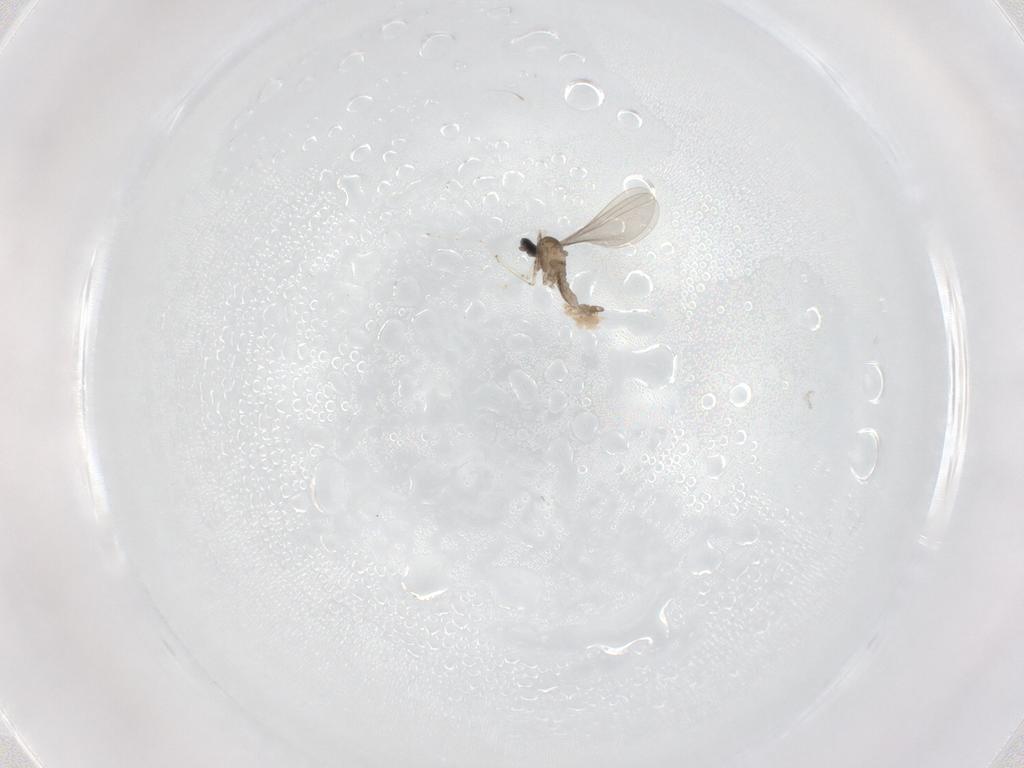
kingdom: Animalia
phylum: Arthropoda
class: Insecta
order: Diptera
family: Sciaridae
